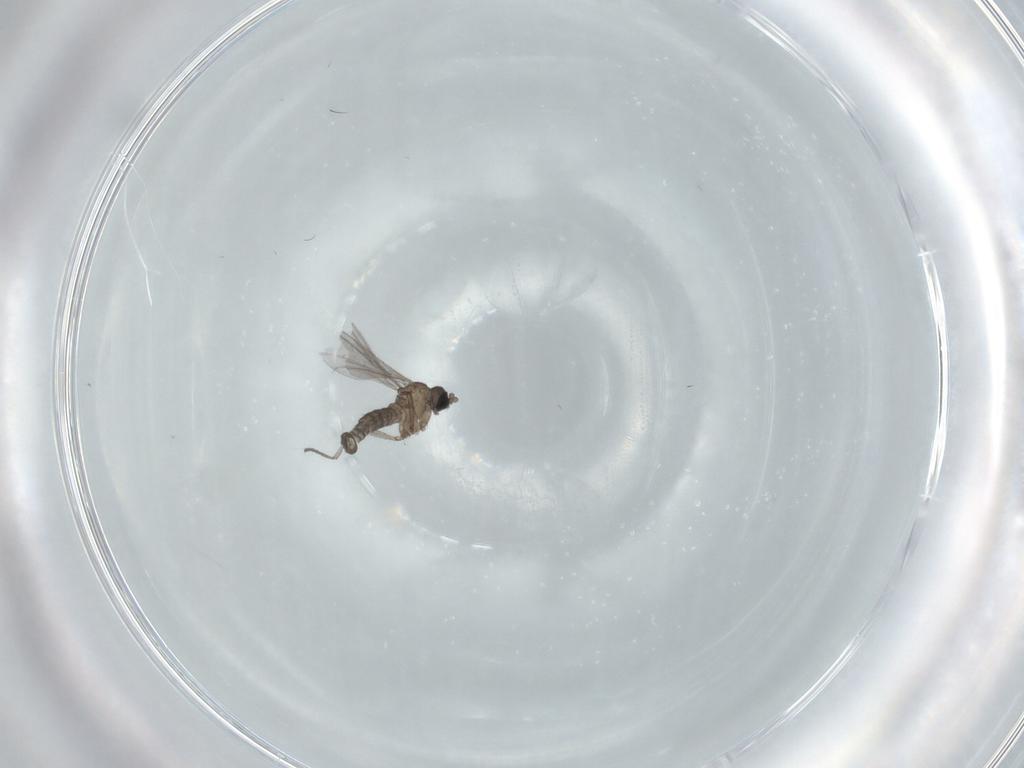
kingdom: Animalia
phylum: Arthropoda
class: Insecta
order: Diptera
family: Sciaridae
